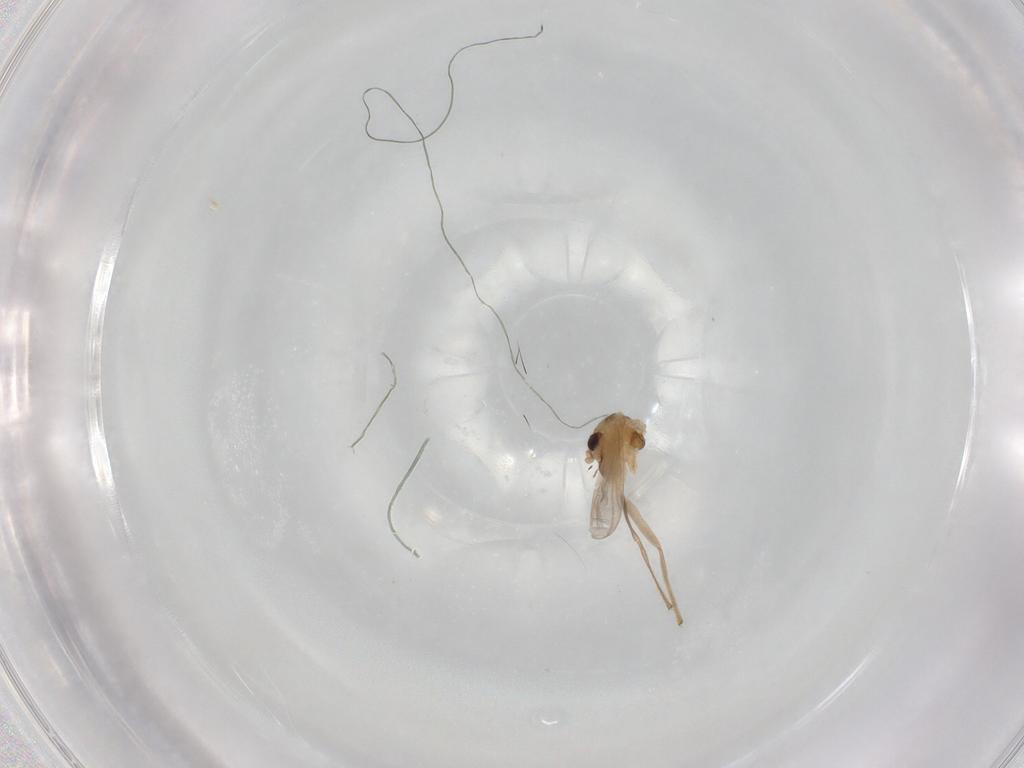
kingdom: Animalia
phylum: Arthropoda
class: Insecta
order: Diptera
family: Chironomidae
